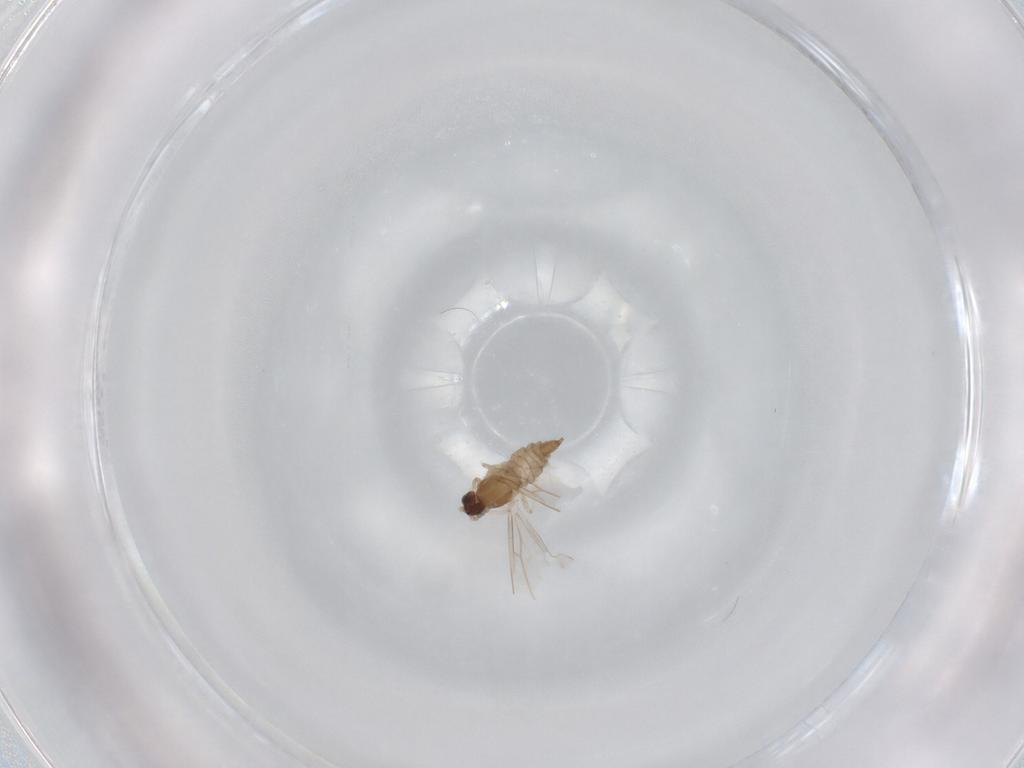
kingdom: Animalia
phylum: Arthropoda
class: Insecta
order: Diptera
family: Cecidomyiidae
